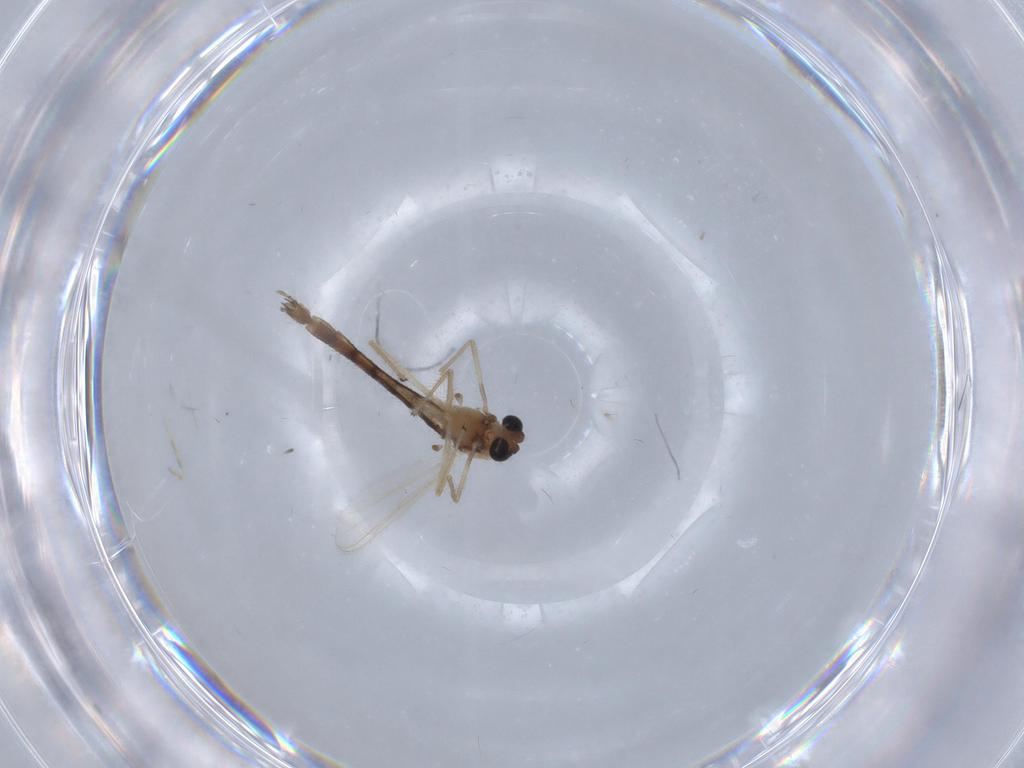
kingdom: Animalia
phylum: Arthropoda
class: Insecta
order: Diptera
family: Chironomidae
